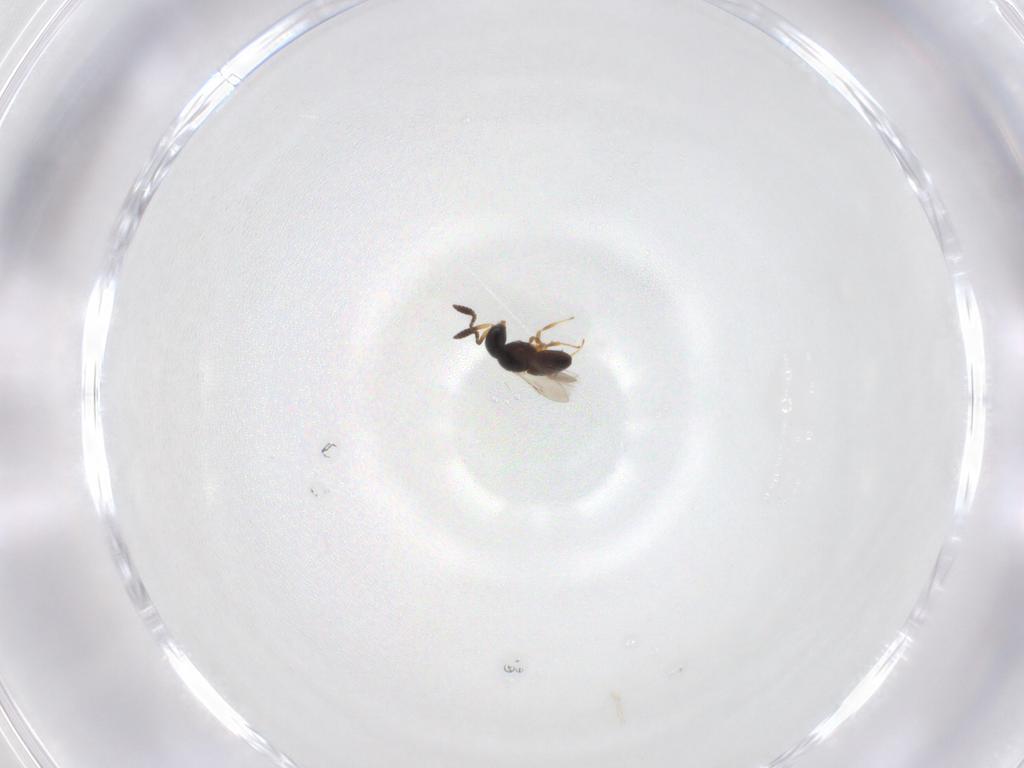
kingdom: Animalia
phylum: Arthropoda
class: Insecta
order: Hymenoptera
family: Scelionidae
